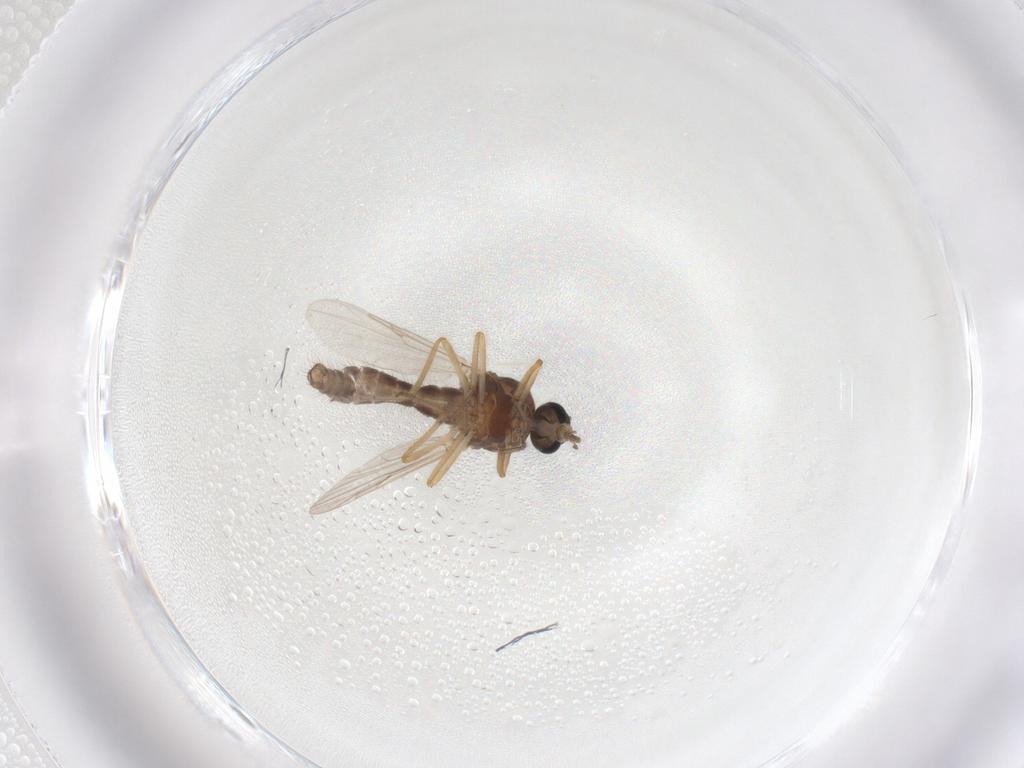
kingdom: Animalia
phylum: Arthropoda
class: Insecta
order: Diptera
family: Ceratopogonidae
